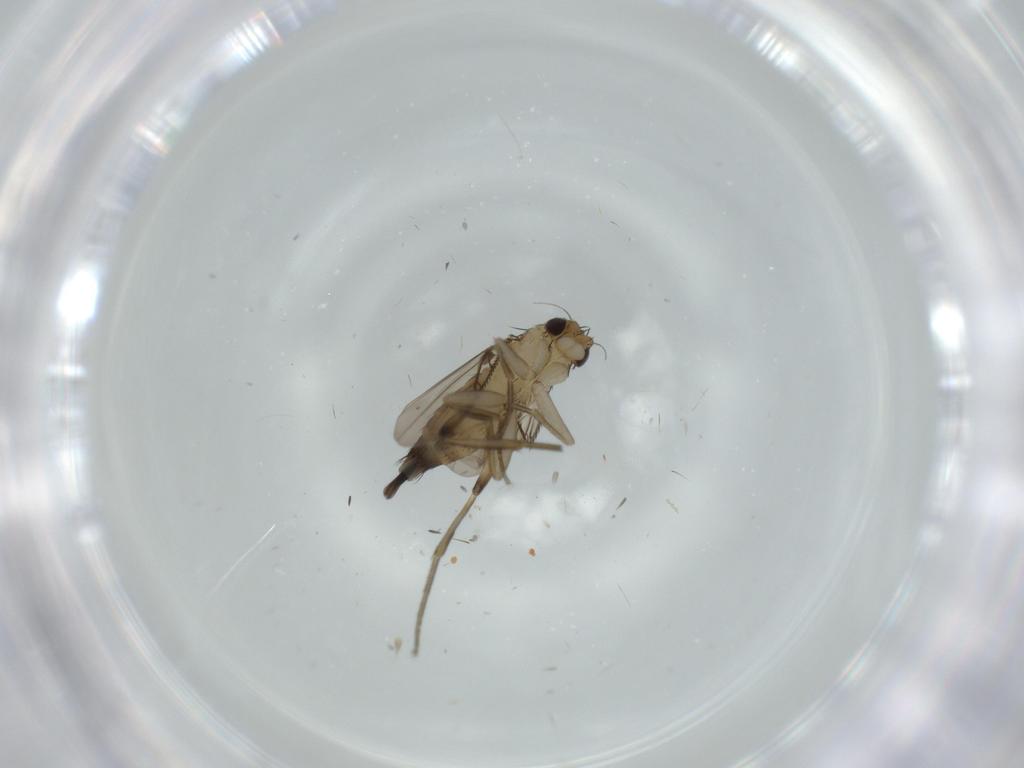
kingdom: Animalia
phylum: Arthropoda
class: Insecta
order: Diptera
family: Phoridae
